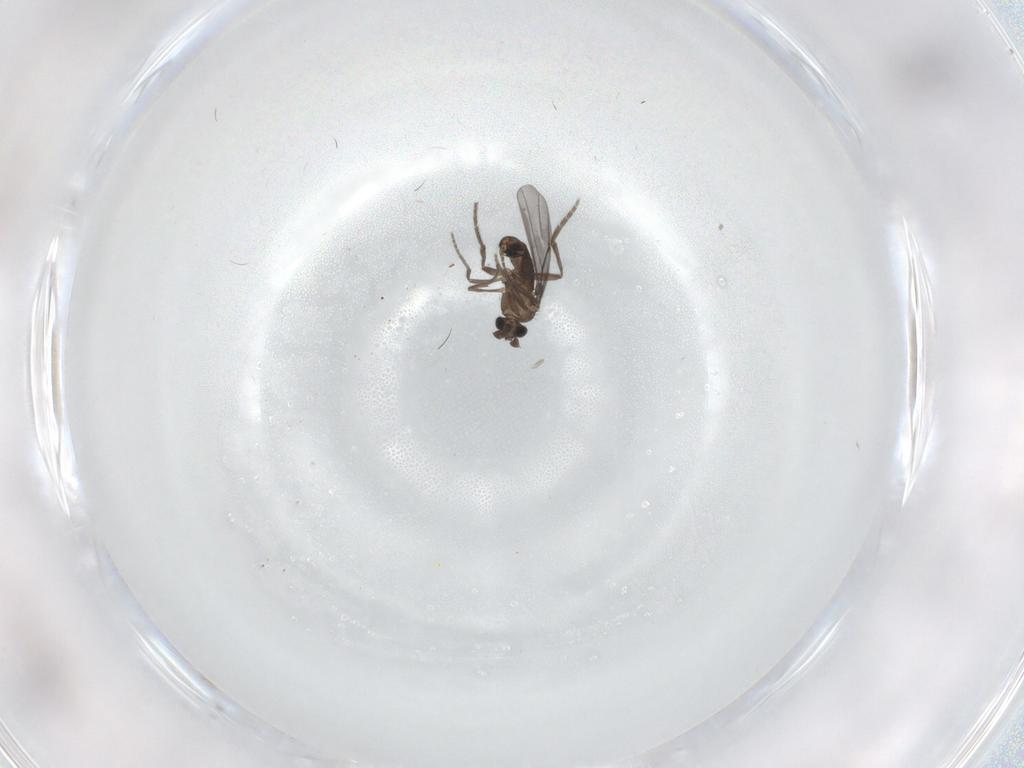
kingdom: Animalia
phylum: Arthropoda
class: Insecta
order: Diptera
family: Phoridae
